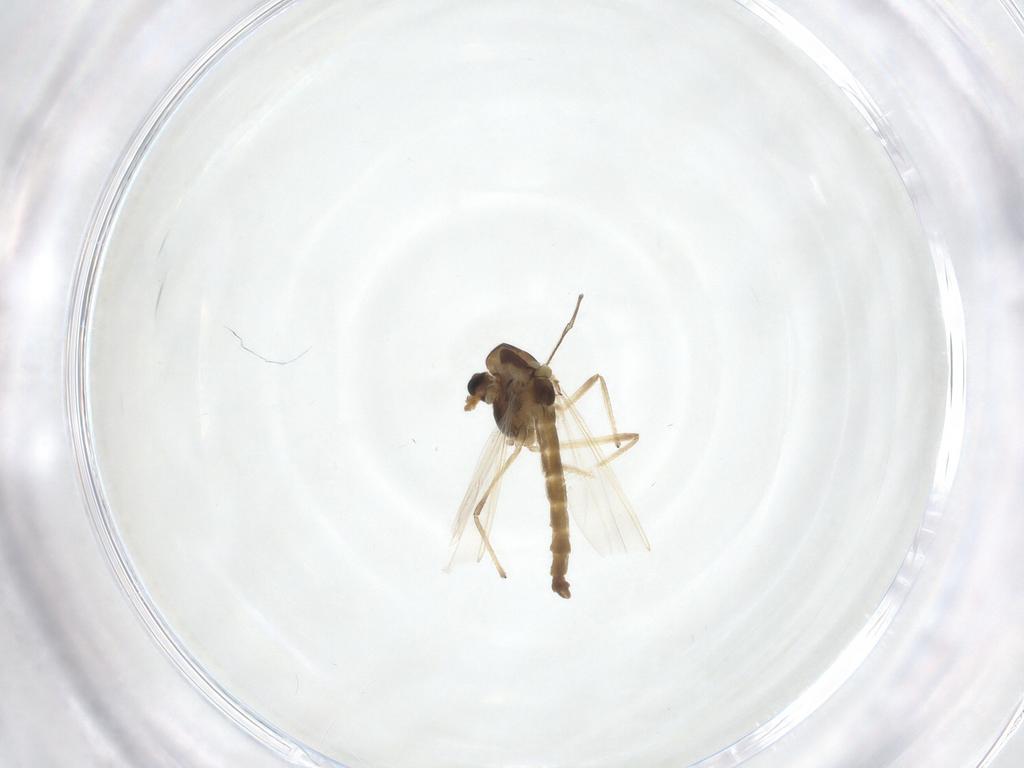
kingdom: Animalia
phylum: Arthropoda
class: Insecta
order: Diptera
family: Chironomidae
